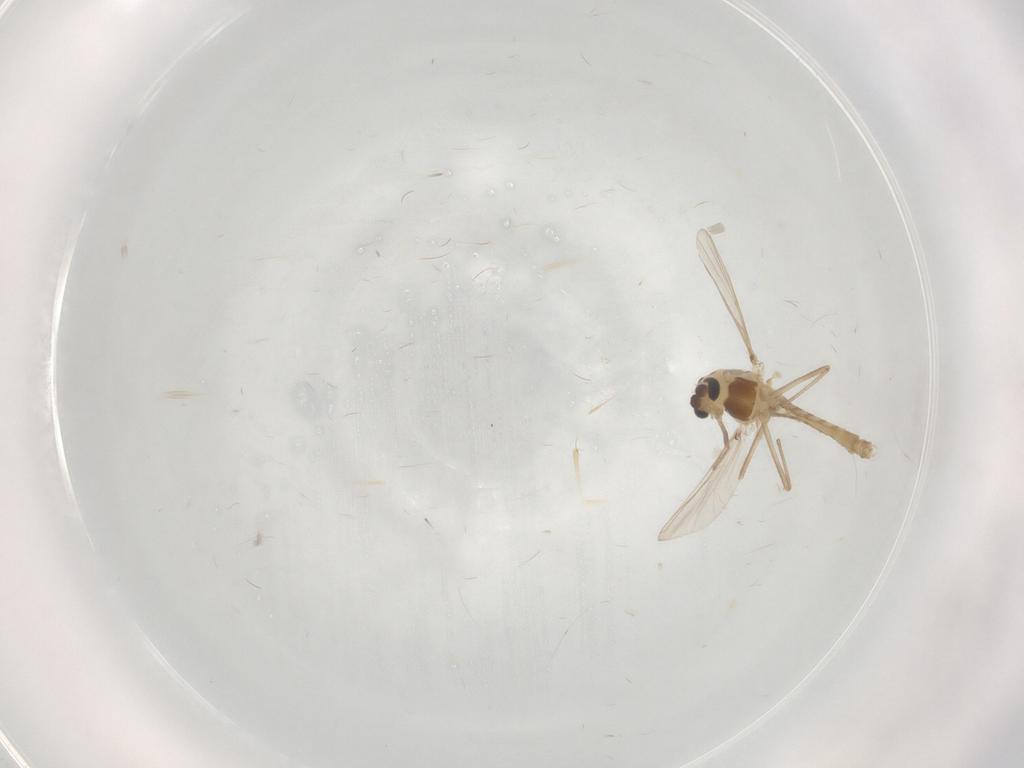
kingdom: Animalia
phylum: Arthropoda
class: Insecta
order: Diptera
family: Chironomidae
